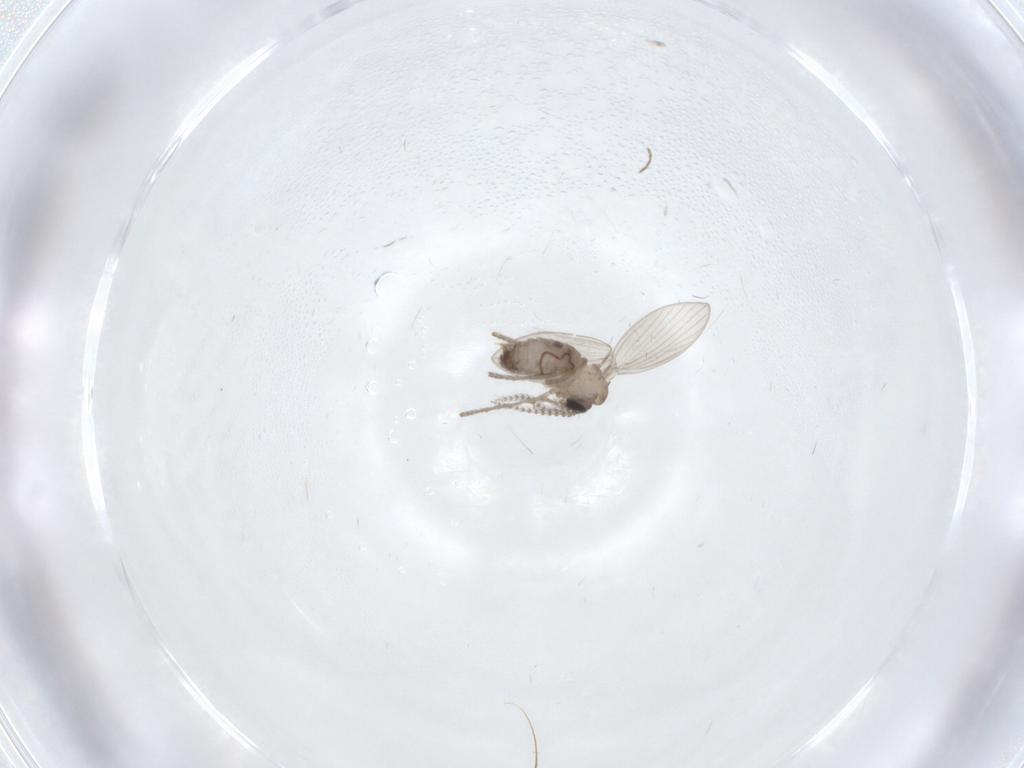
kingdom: Animalia
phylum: Arthropoda
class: Insecta
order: Diptera
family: Psychodidae
